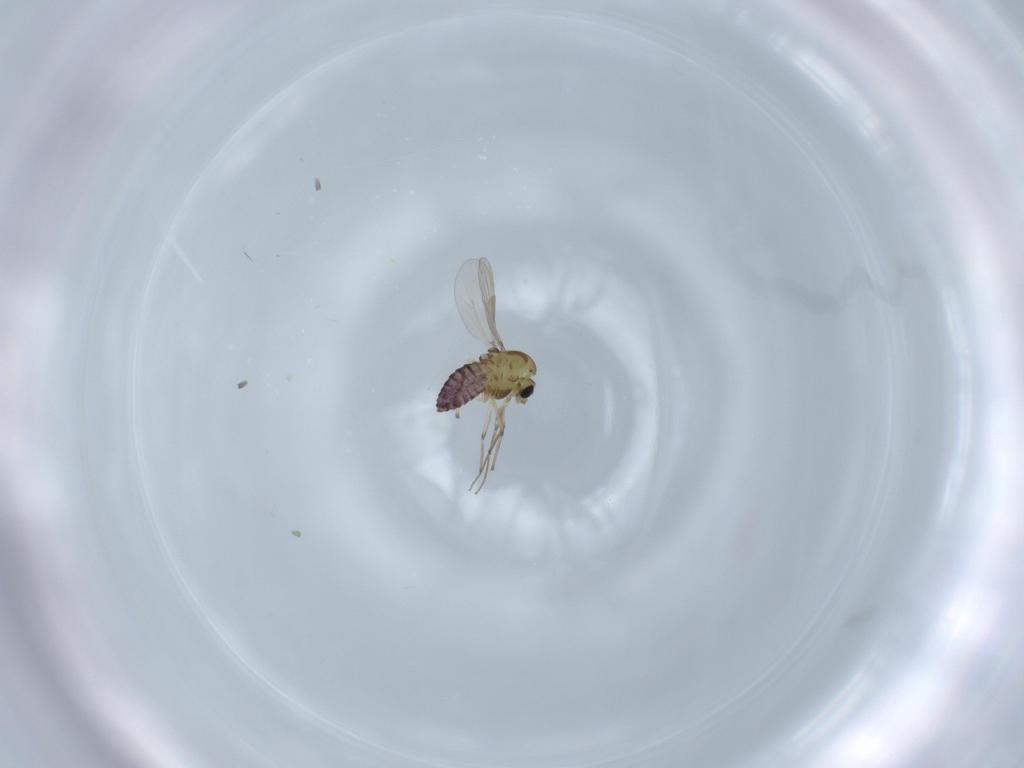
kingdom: Animalia
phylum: Arthropoda
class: Insecta
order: Diptera
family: Chironomidae
